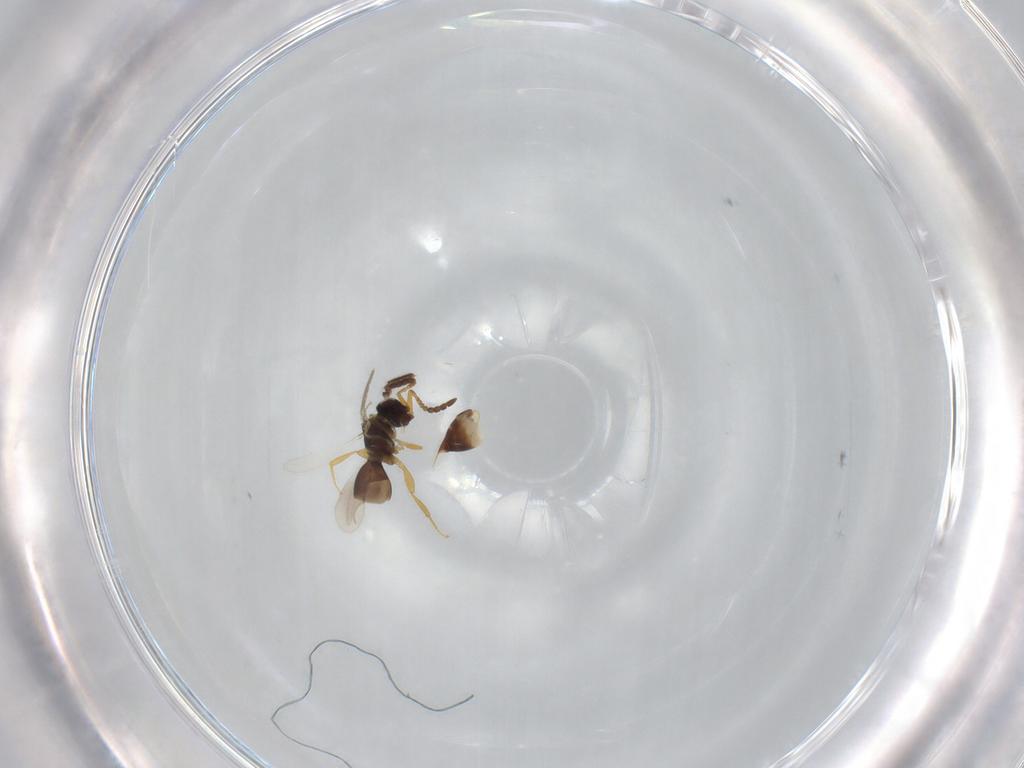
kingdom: Animalia
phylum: Arthropoda
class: Insecta
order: Hymenoptera
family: Ceraphronidae
